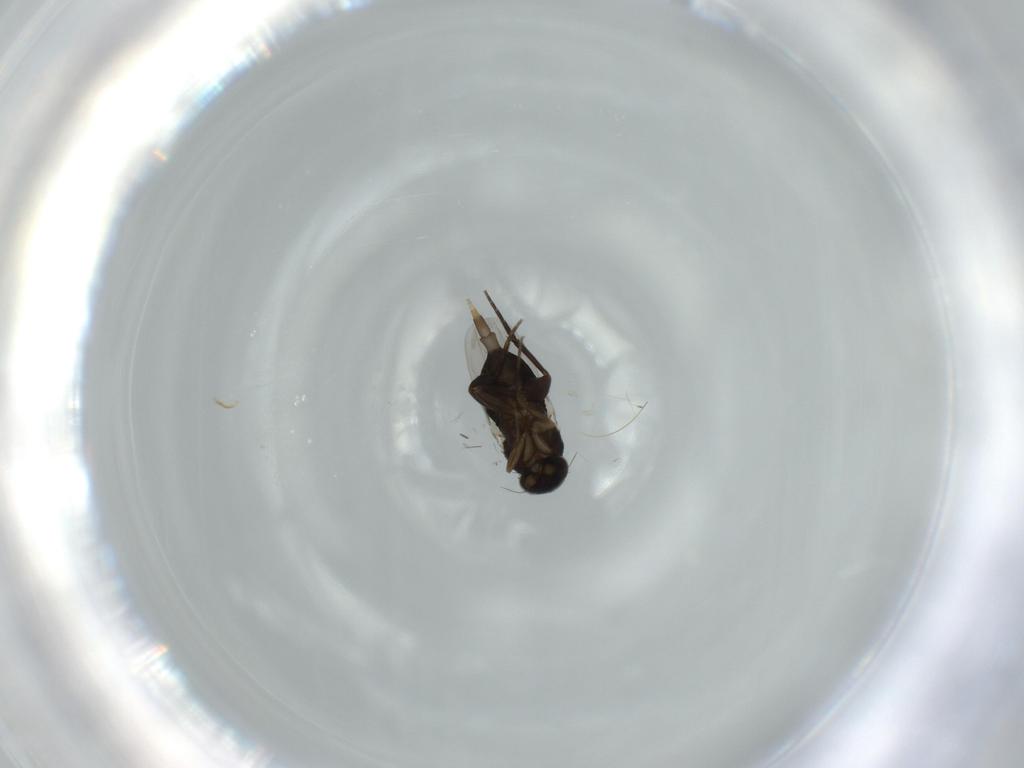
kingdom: Animalia
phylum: Arthropoda
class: Insecta
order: Diptera
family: Phoridae
